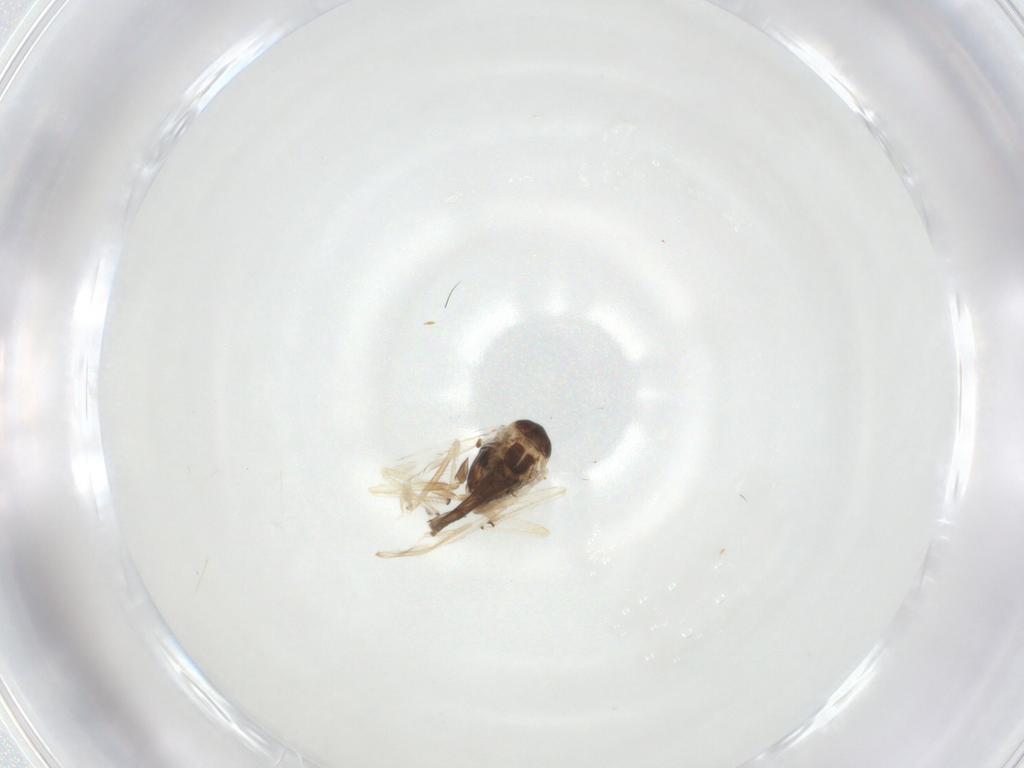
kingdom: Animalia
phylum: Arthropoda
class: Insecta
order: Diptera
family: Chironomidae
